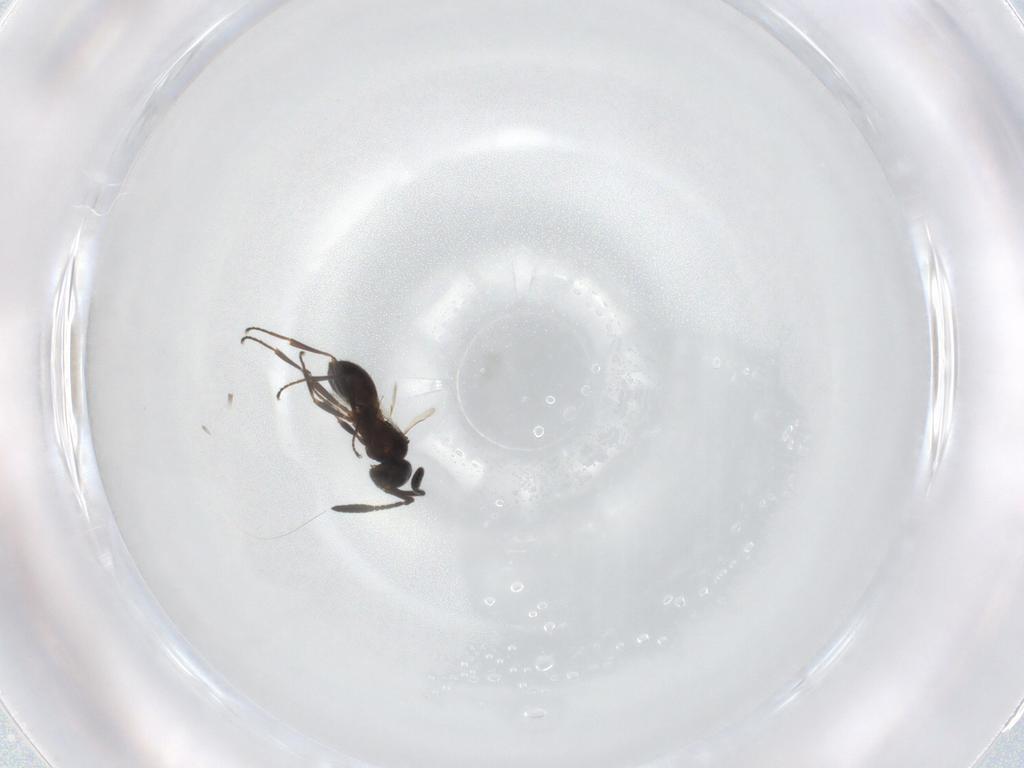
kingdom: Animalia
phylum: Arthropoda
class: Insecta
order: Hymenoptera
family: Scelionidae
